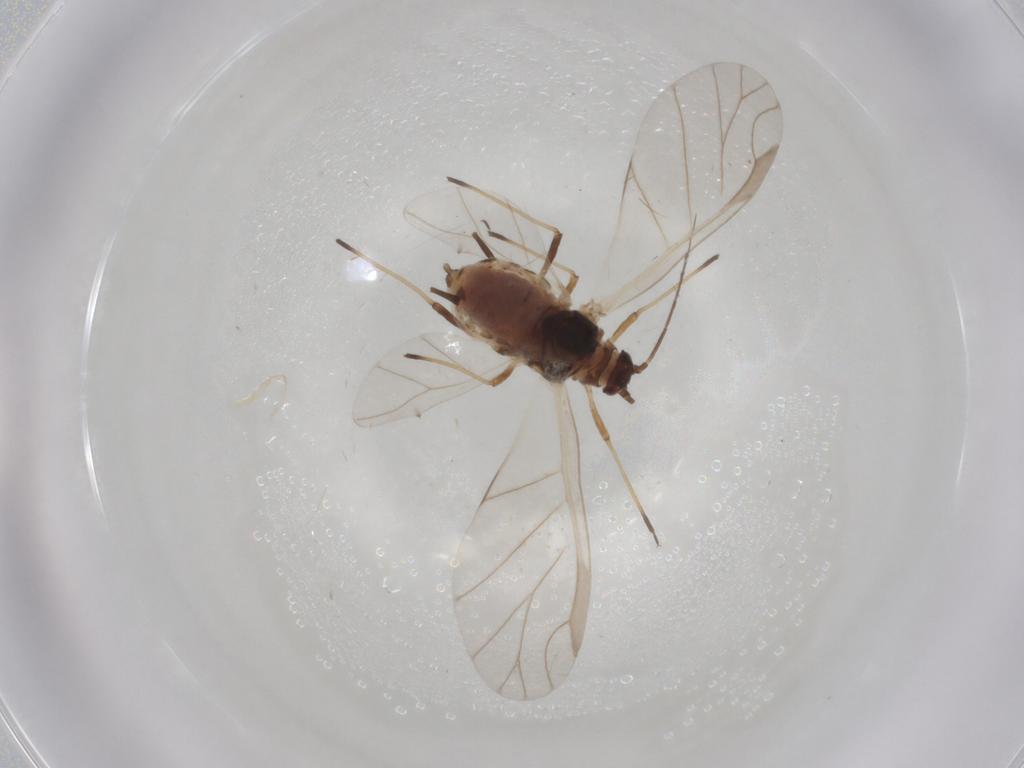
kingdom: Animalia
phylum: Arthropoda
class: Insecta
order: Hemiptera
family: Aphididae
